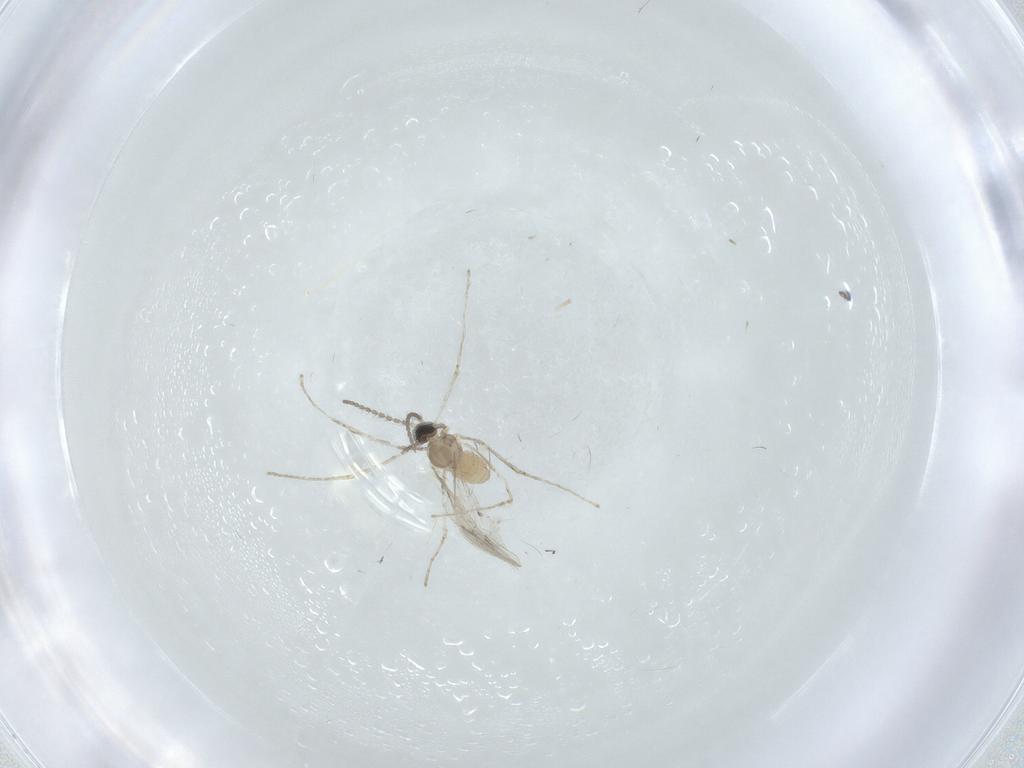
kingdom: Animalia
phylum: Arthropoda
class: Insecta
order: Diptera
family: Cecidomyiidae
